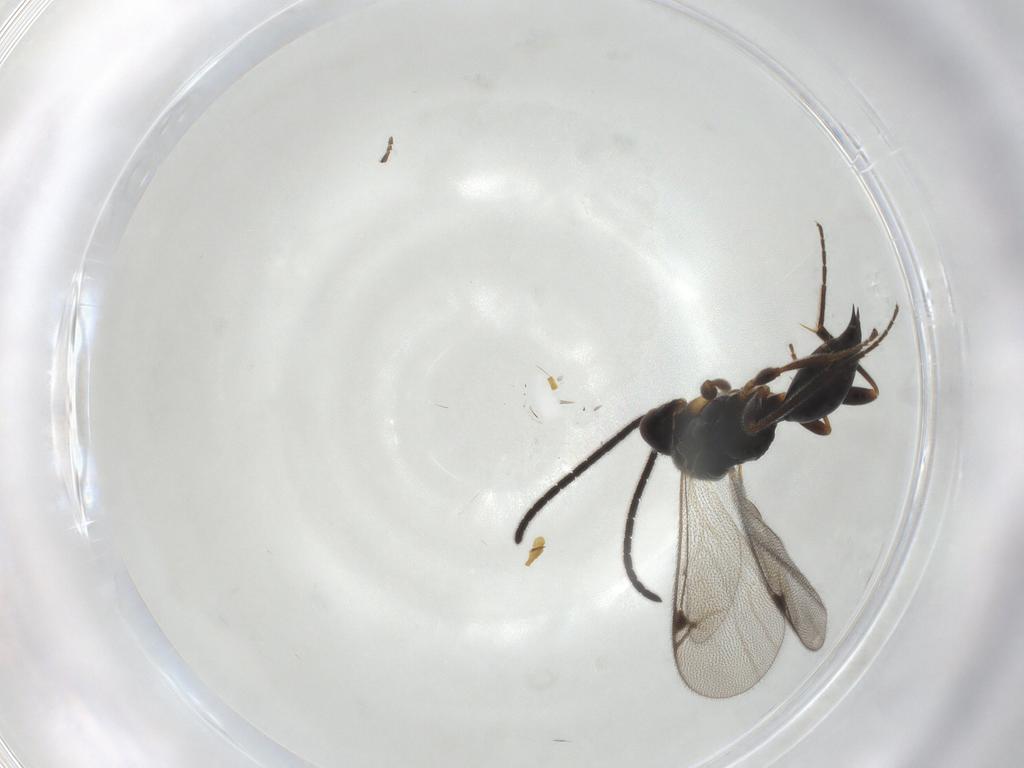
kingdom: Animalia
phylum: Arthropoda
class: Insecta
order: Hymenoptera
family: Proctotrupidae
